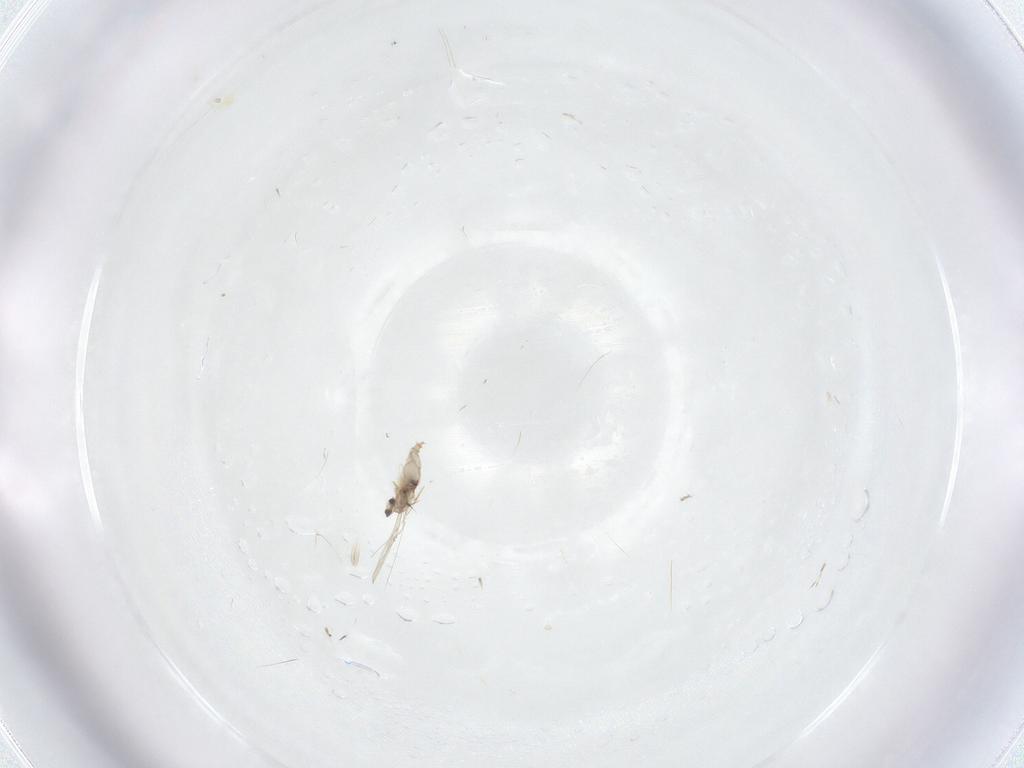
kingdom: Animalia
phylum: Arthropoda
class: Insecta
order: Diptera
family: Cecidomyiidae
